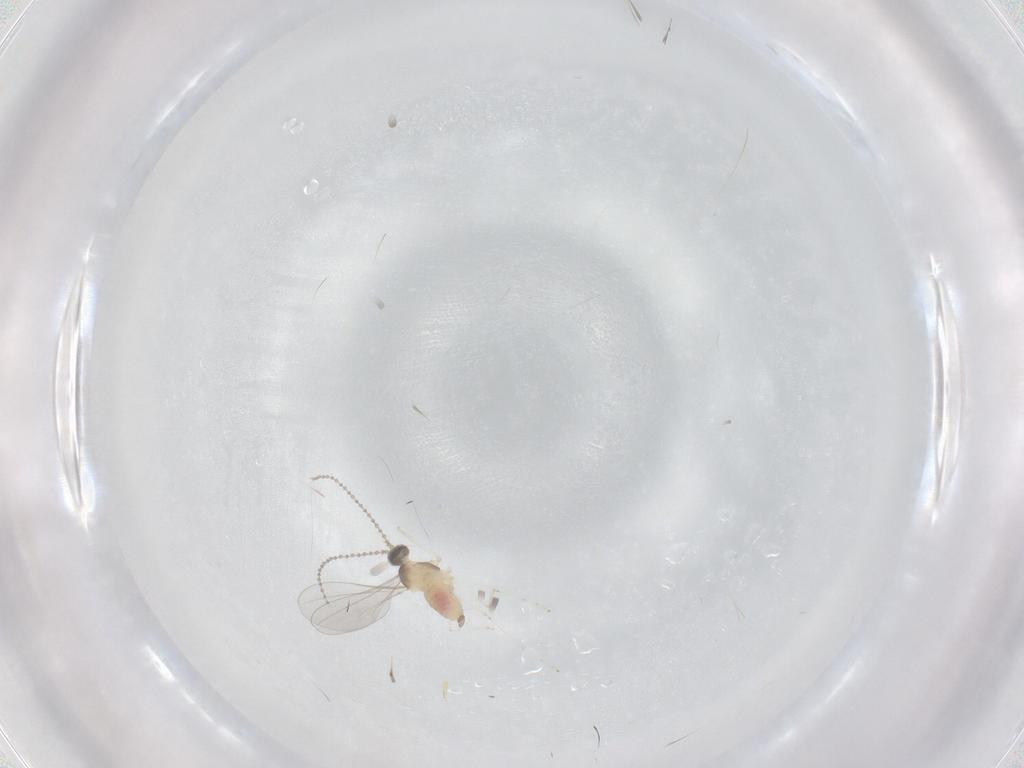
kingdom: Animalia
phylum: Arthropoda
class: Insecta
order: Diptera
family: Cecidomyiidae
